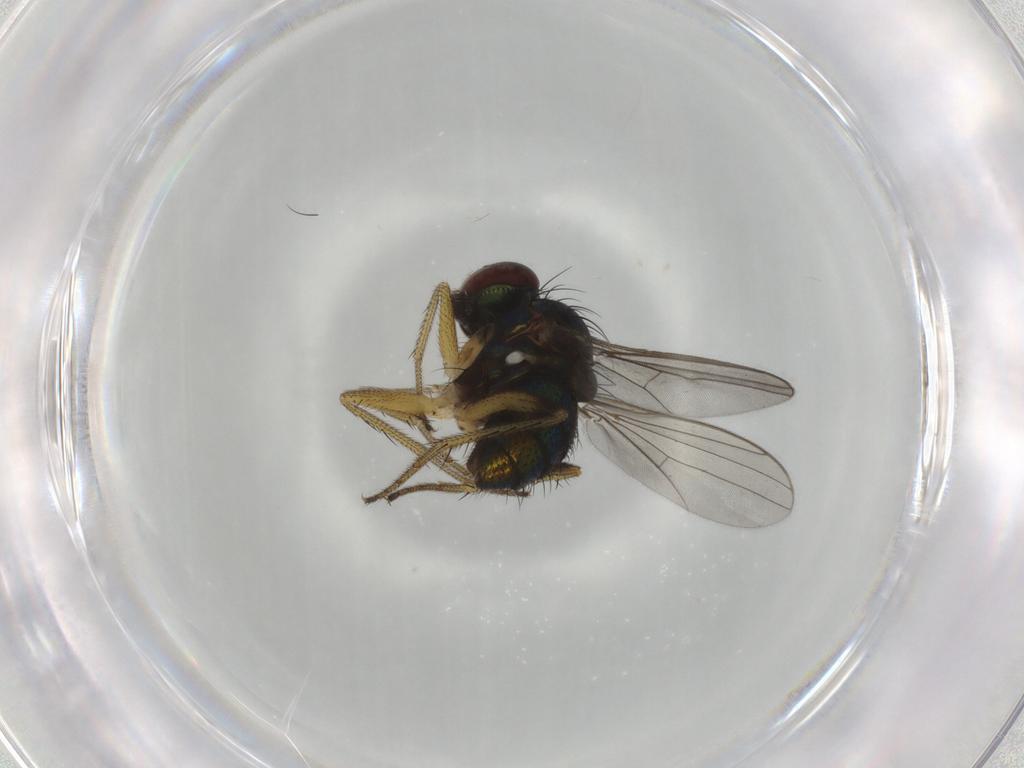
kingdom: Animalia
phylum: Arthropoda
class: Insecta
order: Diptera
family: Dolichopodidae
